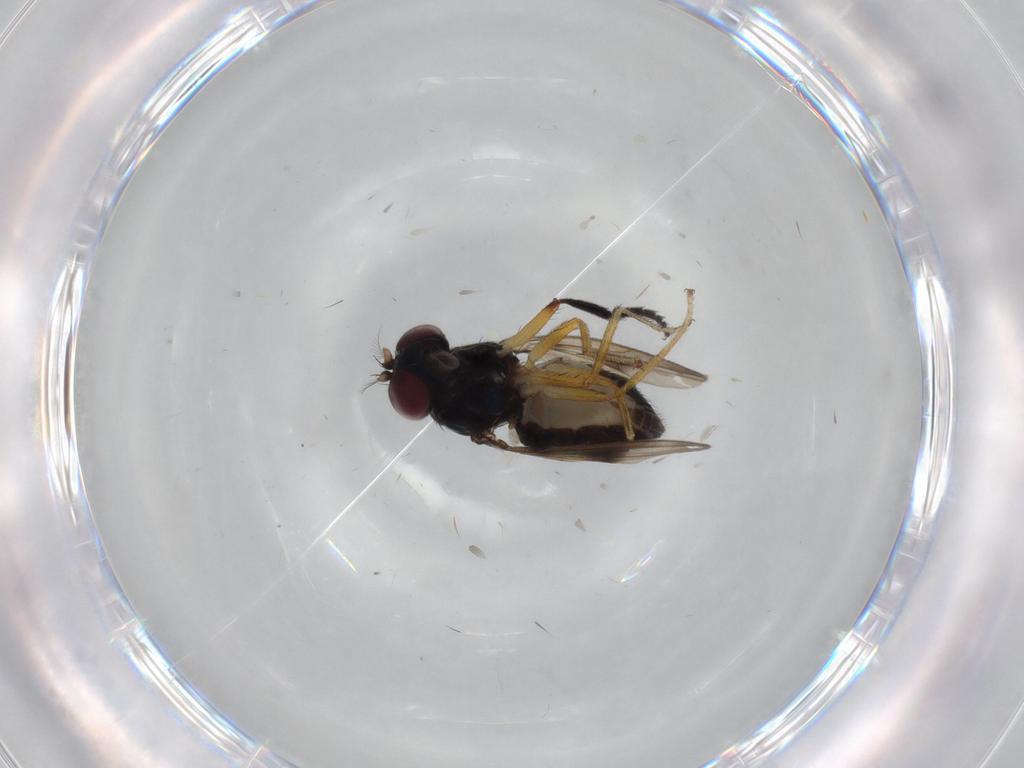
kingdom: Animalia
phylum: Arthropoda
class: Insecta
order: Diptera
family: Ephydridae
